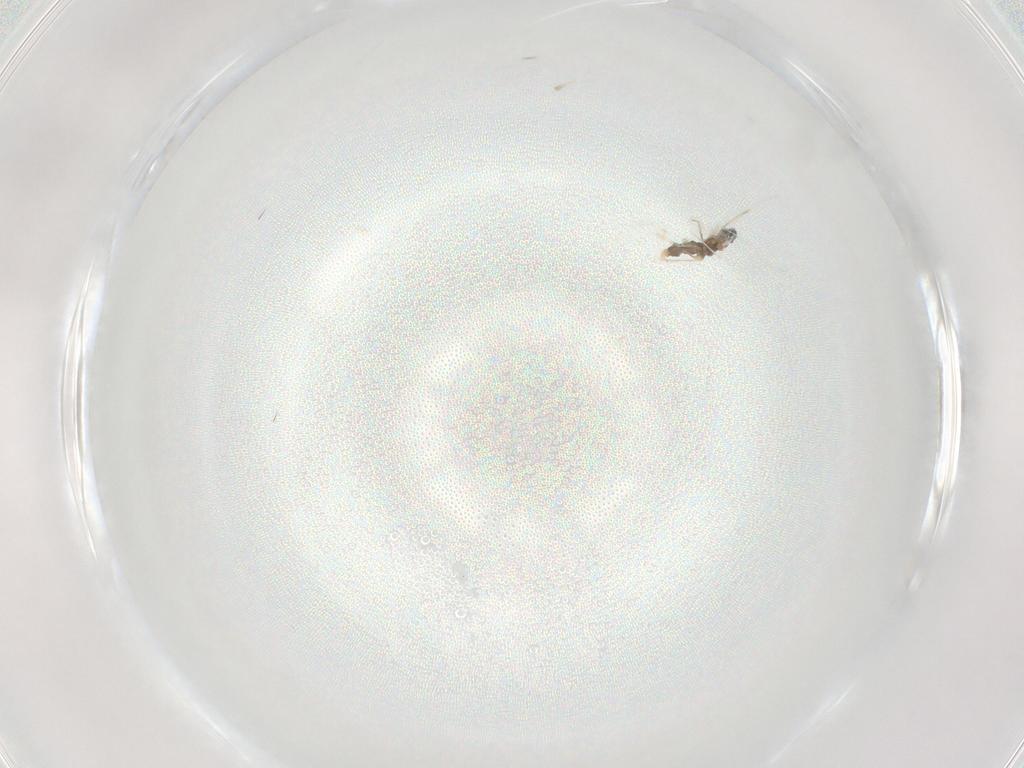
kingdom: Animalia
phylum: Arthropoda
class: Insecta
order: Diptera
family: Cecidomyiidae
